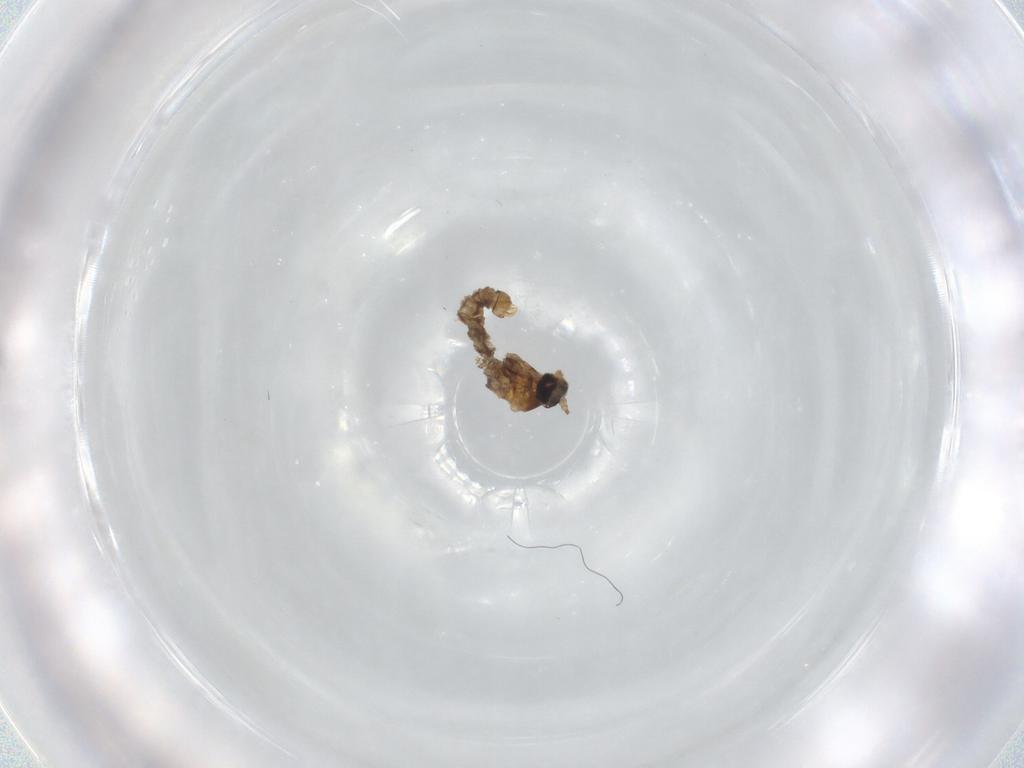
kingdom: Animalia
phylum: Arthropoda
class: Insecta
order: Diptera
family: Cecidomyiidae
